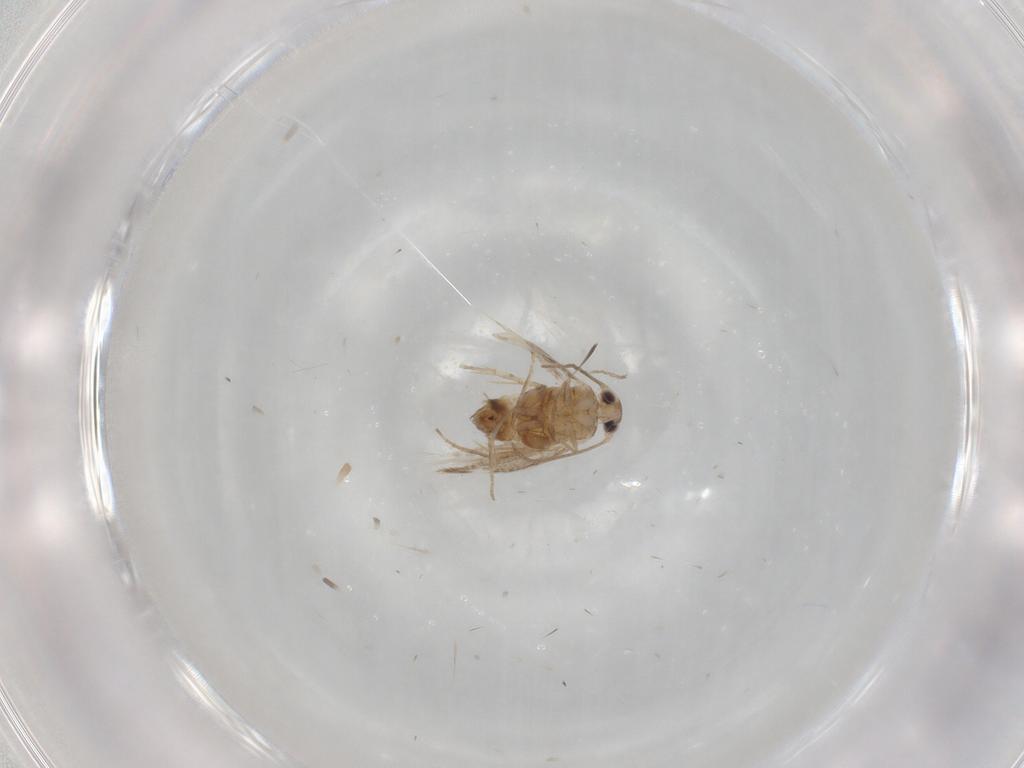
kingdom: Animalia
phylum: Arthropoda
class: Insecta
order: Lepidoptera
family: Nymphalidae
